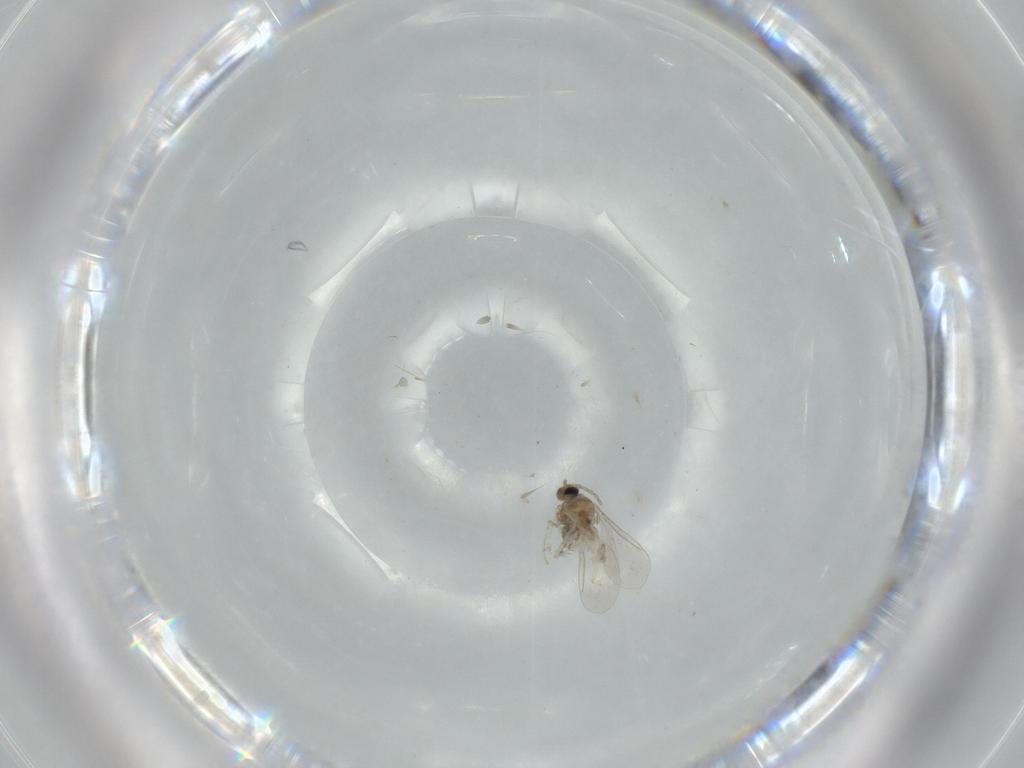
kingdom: Animalia
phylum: Arthropoda
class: Insecta
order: Diptera
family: Cecidomyiidae
